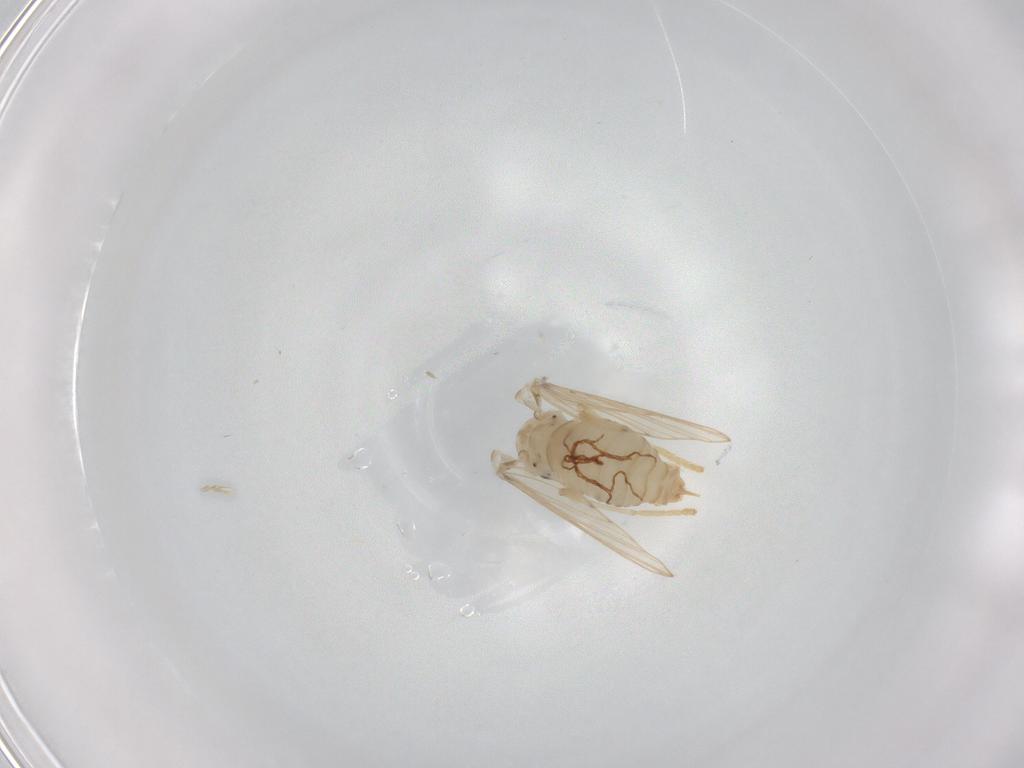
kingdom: Animalia
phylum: Arthropoda
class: Insecta
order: Diptera
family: Psychodidae
